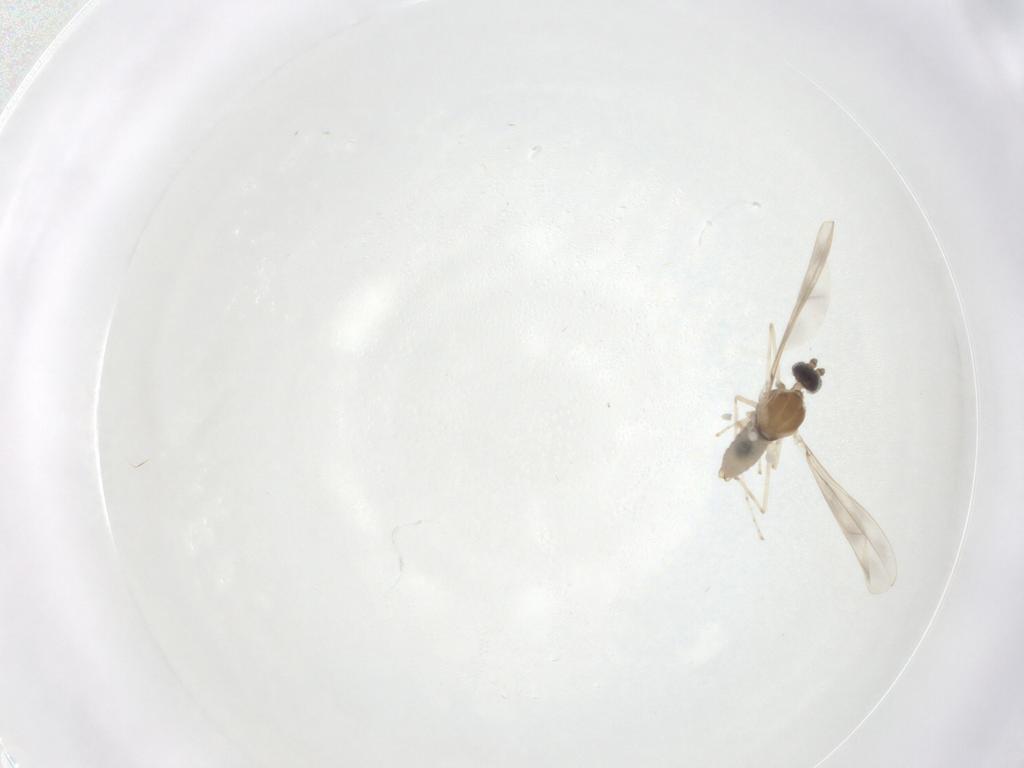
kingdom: Animalia
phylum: Arthropoda
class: Insecta
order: Diptera
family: Cecidomyiidae
